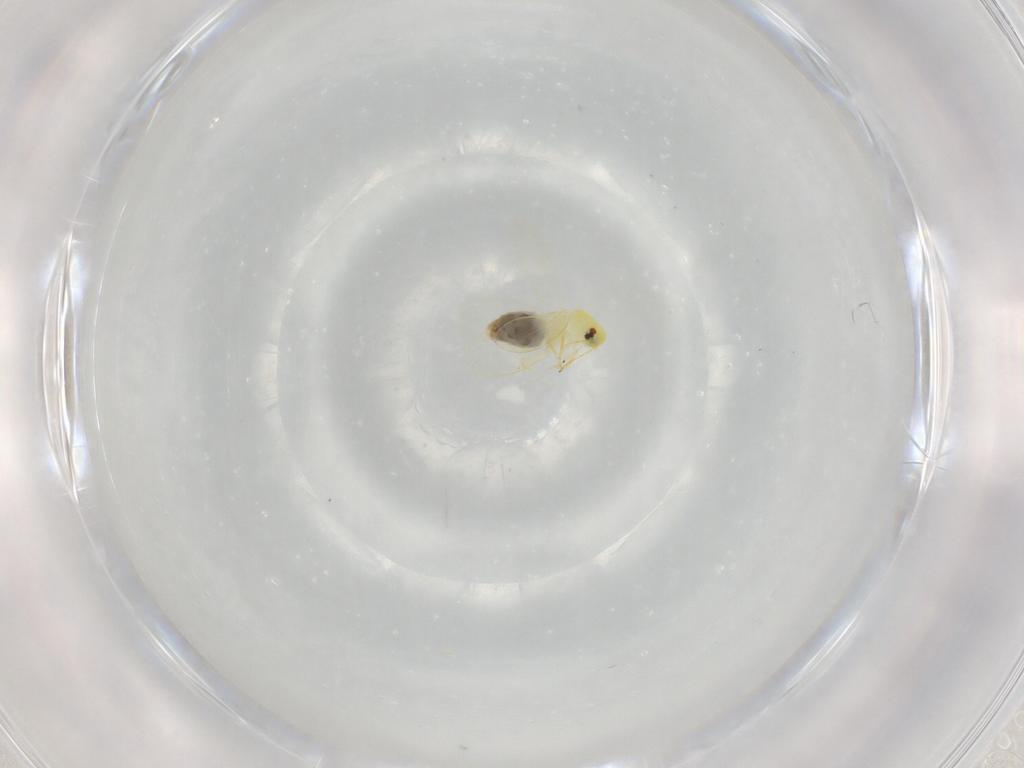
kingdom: Animalia
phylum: Arthropoda
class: Insecta
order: Hemiptera
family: Aleyrodidae
